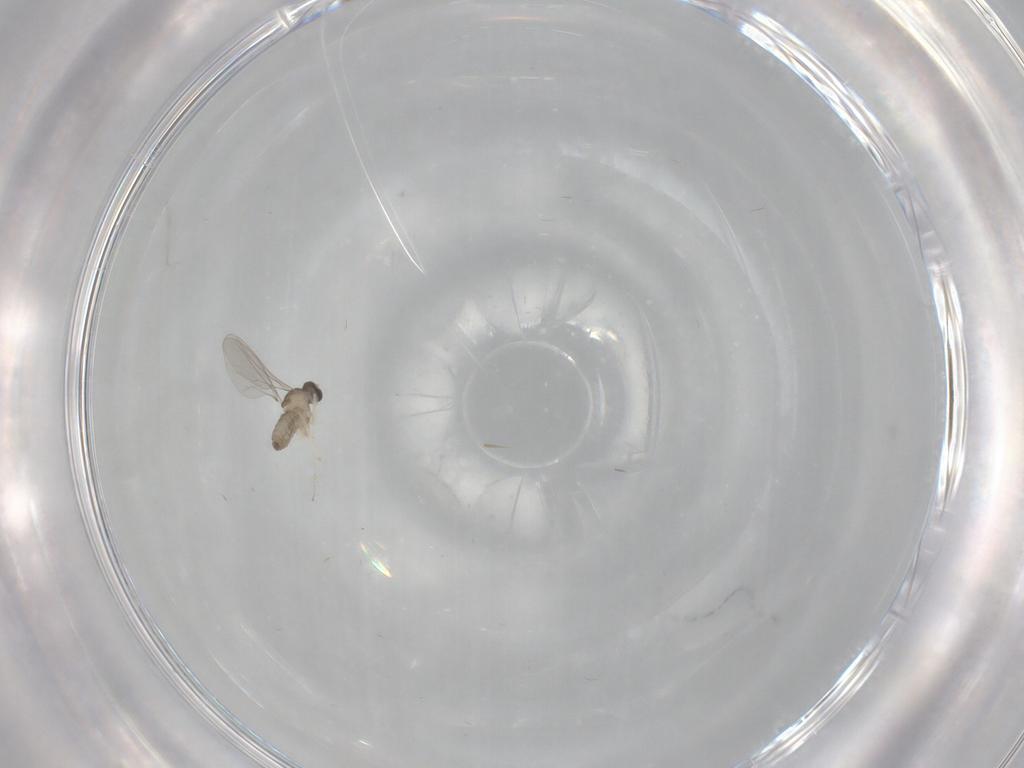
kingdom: Animalia
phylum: Arthropoda
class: Insecta
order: Diptera
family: Cecidomyiidae
